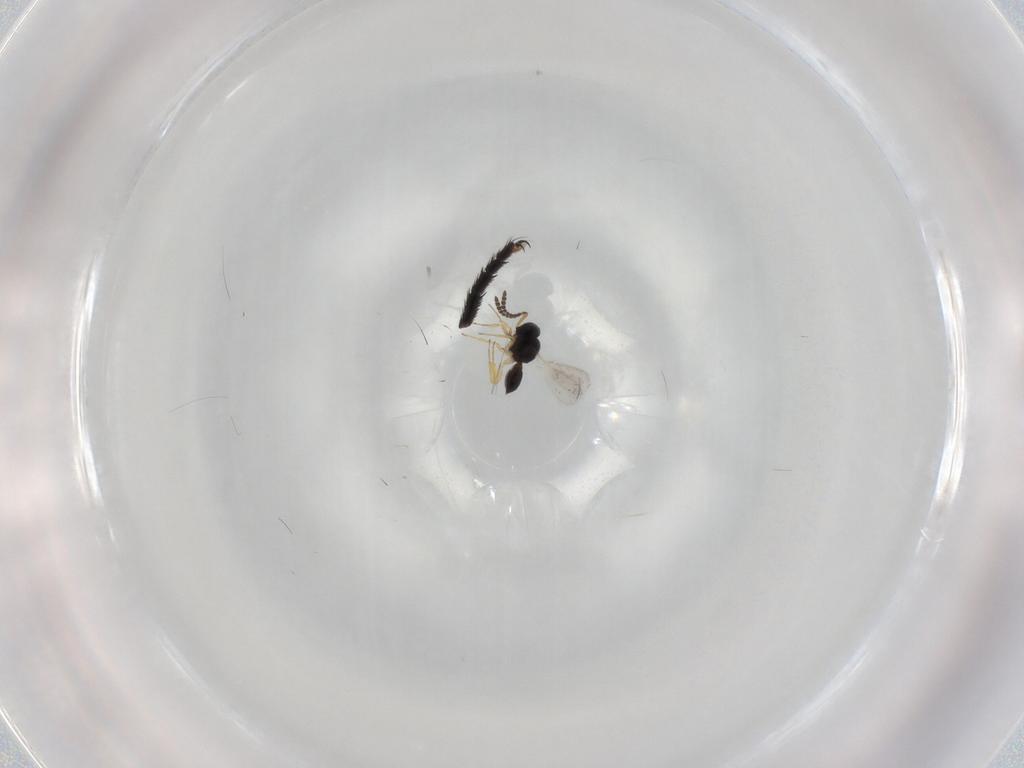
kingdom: Animalia
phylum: Arthropoda
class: Insecta
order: Hymenoptera
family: Scelionidae
